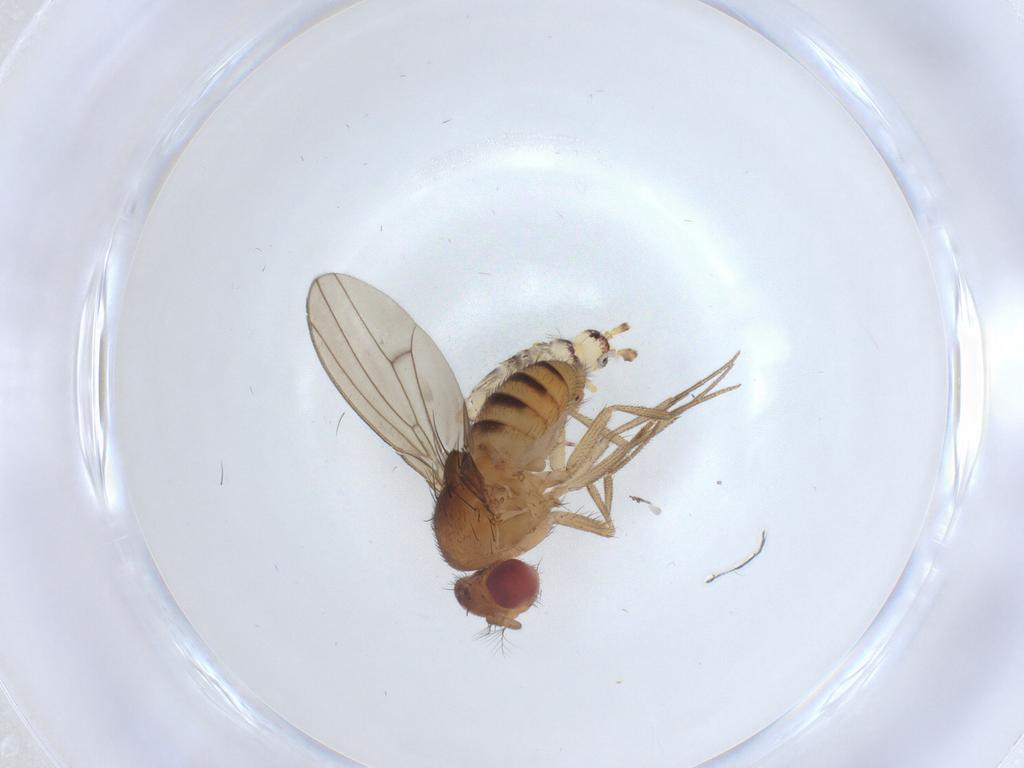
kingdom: Animalia
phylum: Arthropoda
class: Insecta
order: Diptera
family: Drosophilidae
